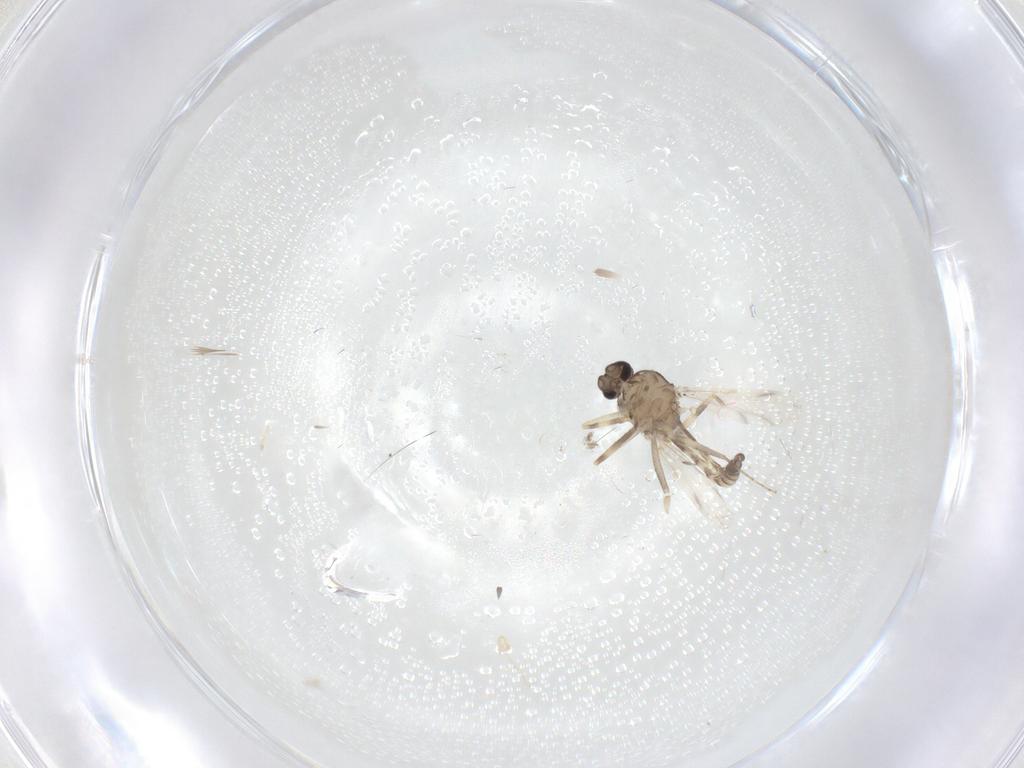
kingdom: Animalia
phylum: Arthropoda
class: Insecta
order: Diptera
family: Ceratopogonidae
